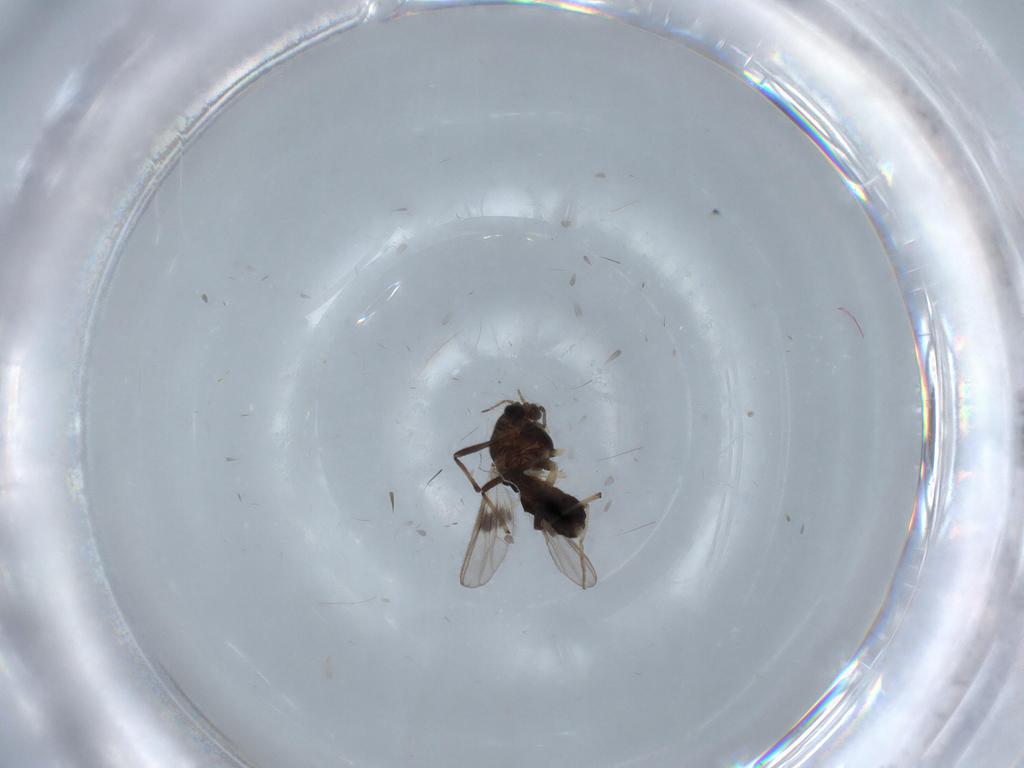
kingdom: Animalia
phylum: Arthropoda
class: Insecta
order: Diptera
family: Chironomidae
